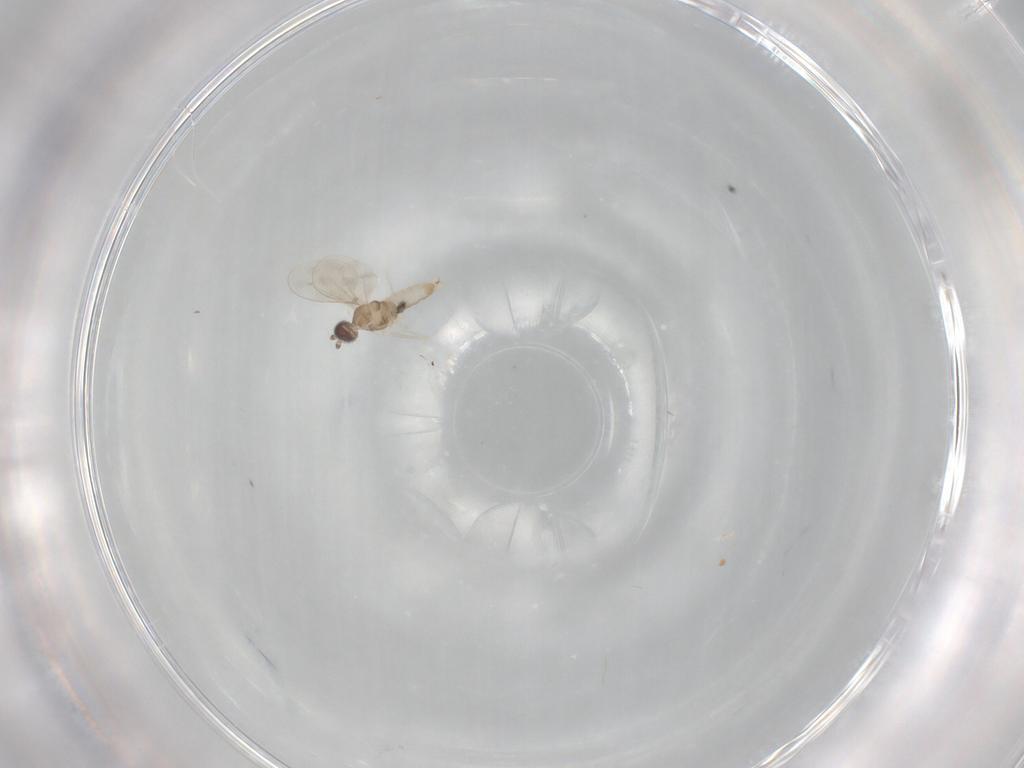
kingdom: Animalia
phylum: Arthropoda
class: Insecta
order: Diptera
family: Cecidomyiidae
